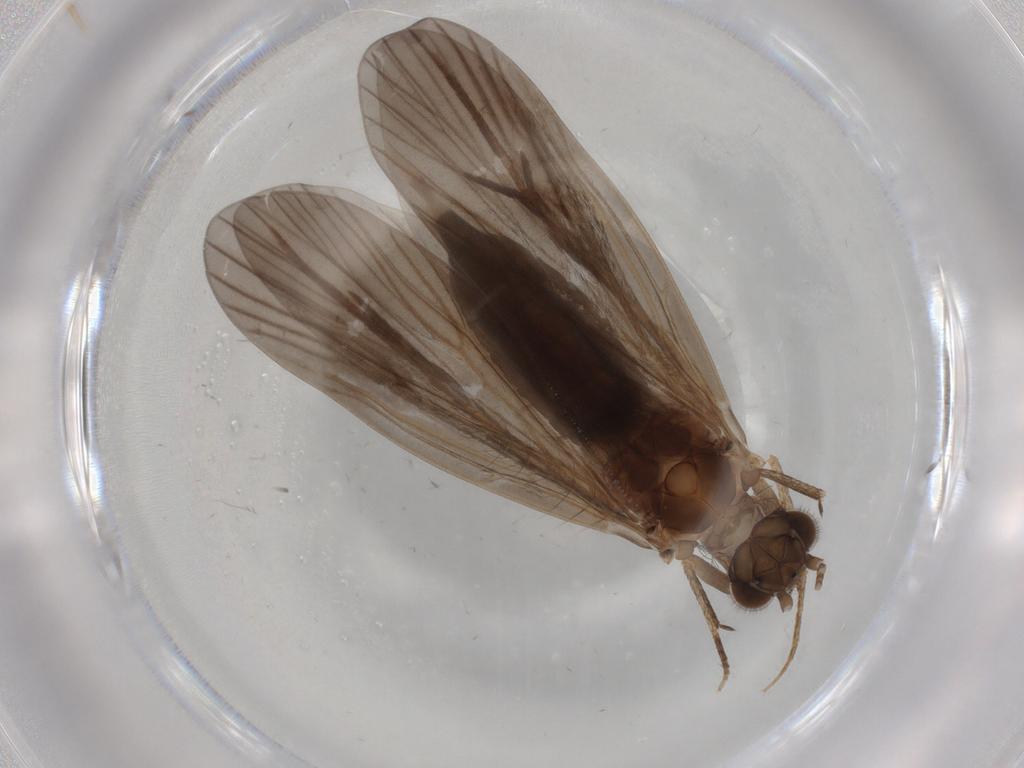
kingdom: Animalia
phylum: Arthropoda
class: Insecta
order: Trichoptera
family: Philopotamidae
